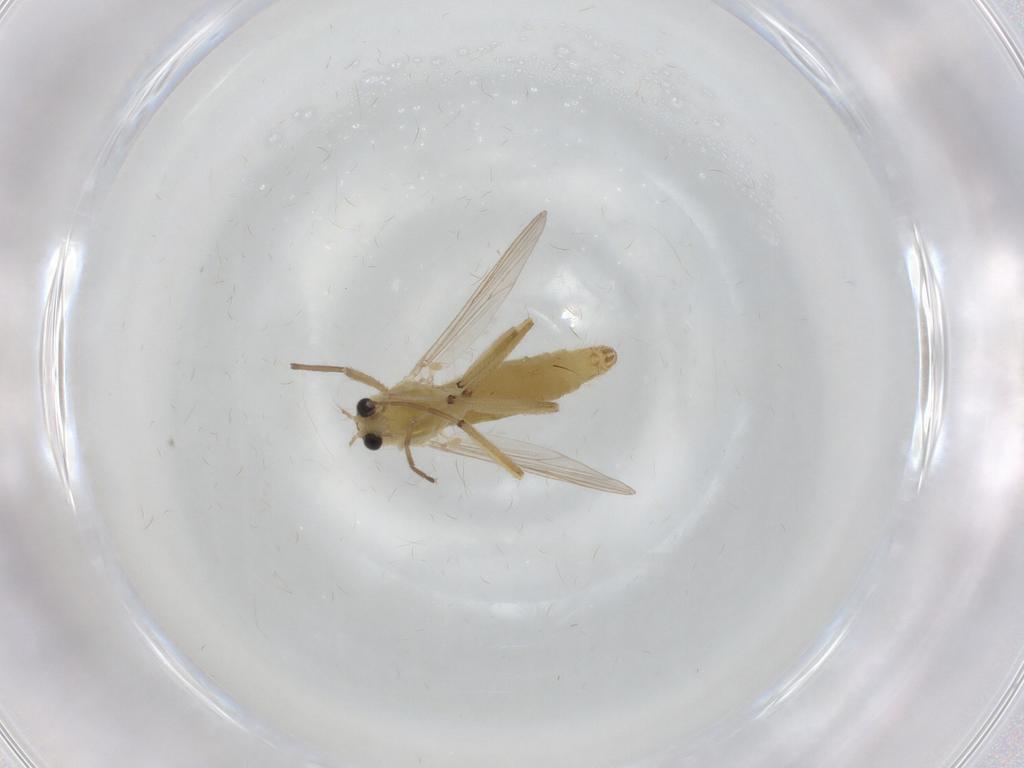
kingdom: Animalia
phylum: Arthropoda
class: Insecta
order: Diptera
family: Chironomidae
